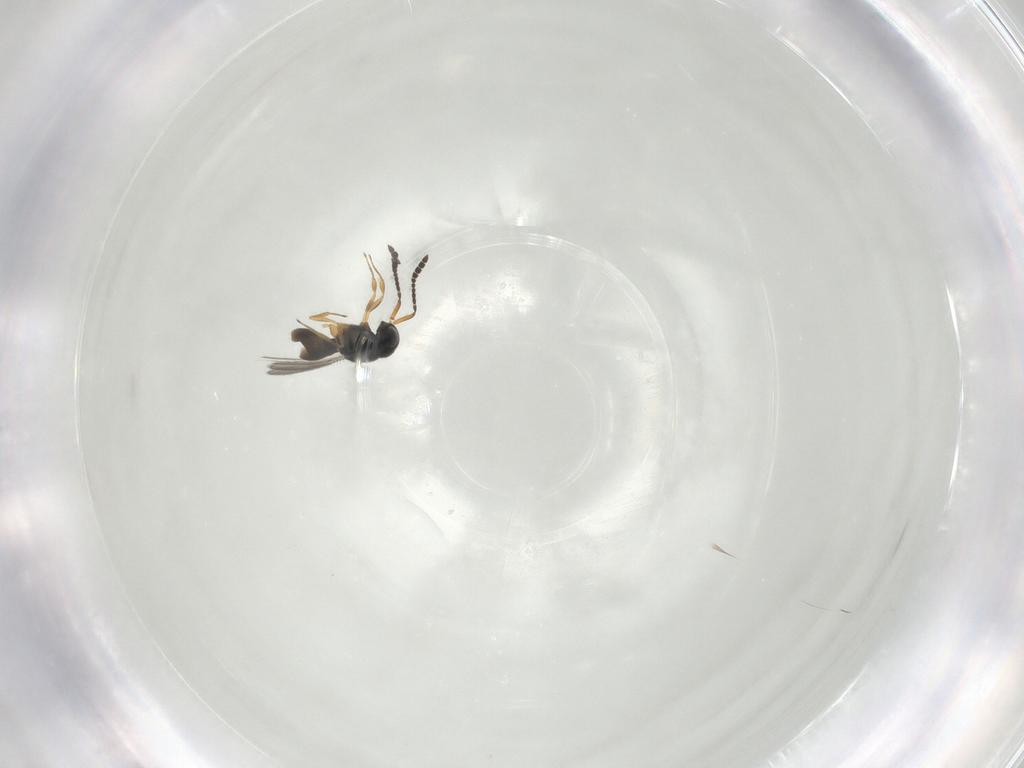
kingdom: Animalia
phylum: Arthropoda
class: Insecta
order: Hymenoptera
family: Scelionidae
